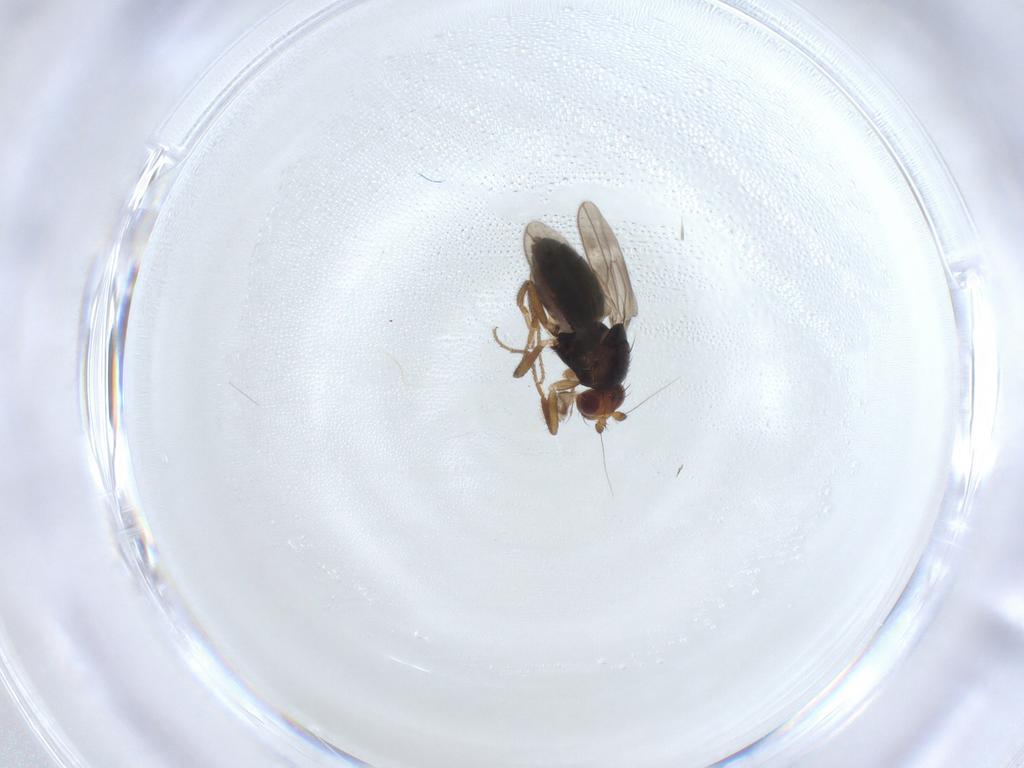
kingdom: Animalia
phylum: Arthropoda
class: Insecta
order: Diptera
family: Sphaeroceridae
